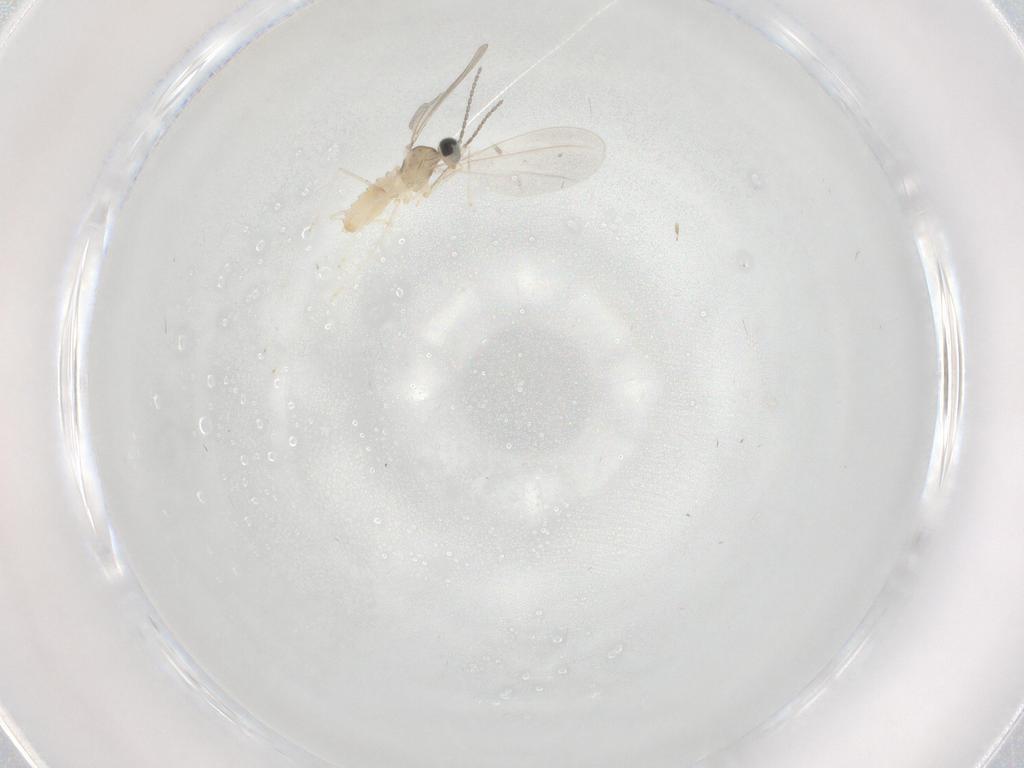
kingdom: Animalia
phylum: Arthropoda
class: Insecta
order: Diptera
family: Cecidomyiidae
